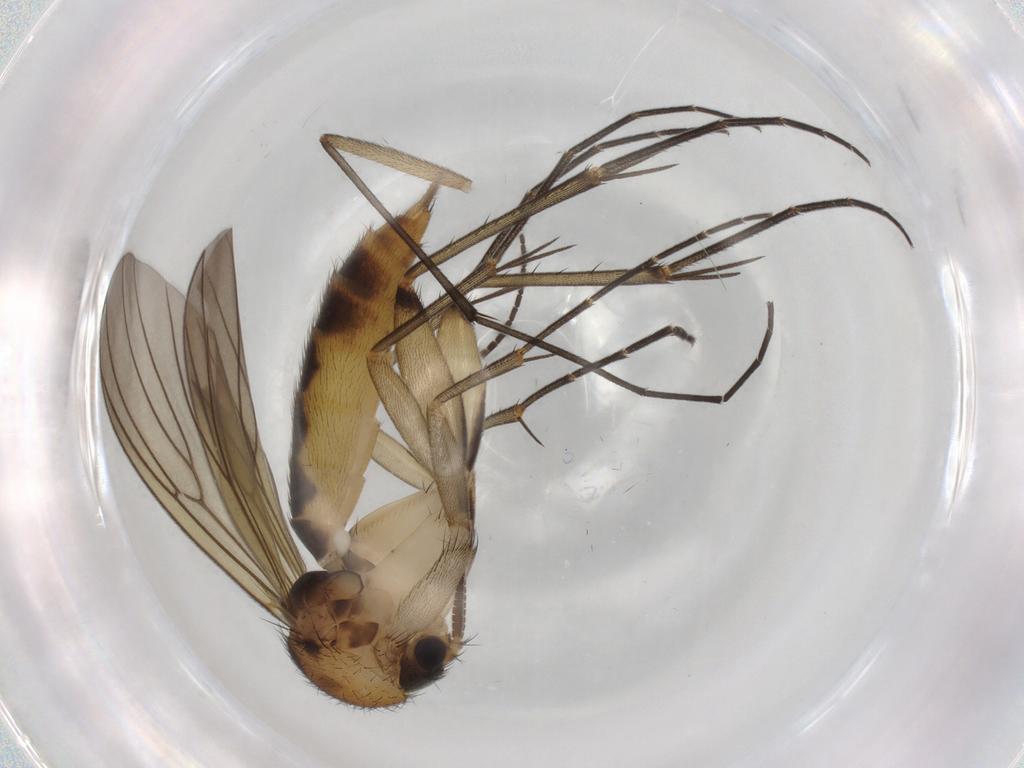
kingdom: Animalia
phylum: Arthropoda
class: Insecta
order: Diptera
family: Mycetophilidae
